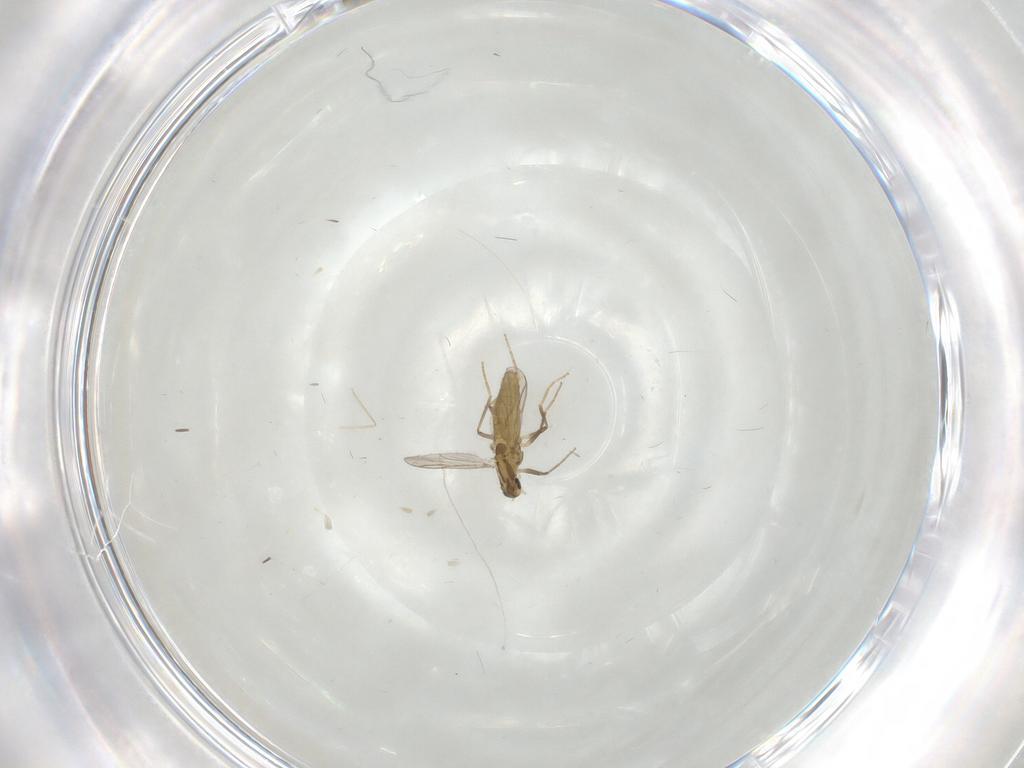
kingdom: Animalia
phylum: Arthropoda
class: Insecta
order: Diptera
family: Chironomidae
